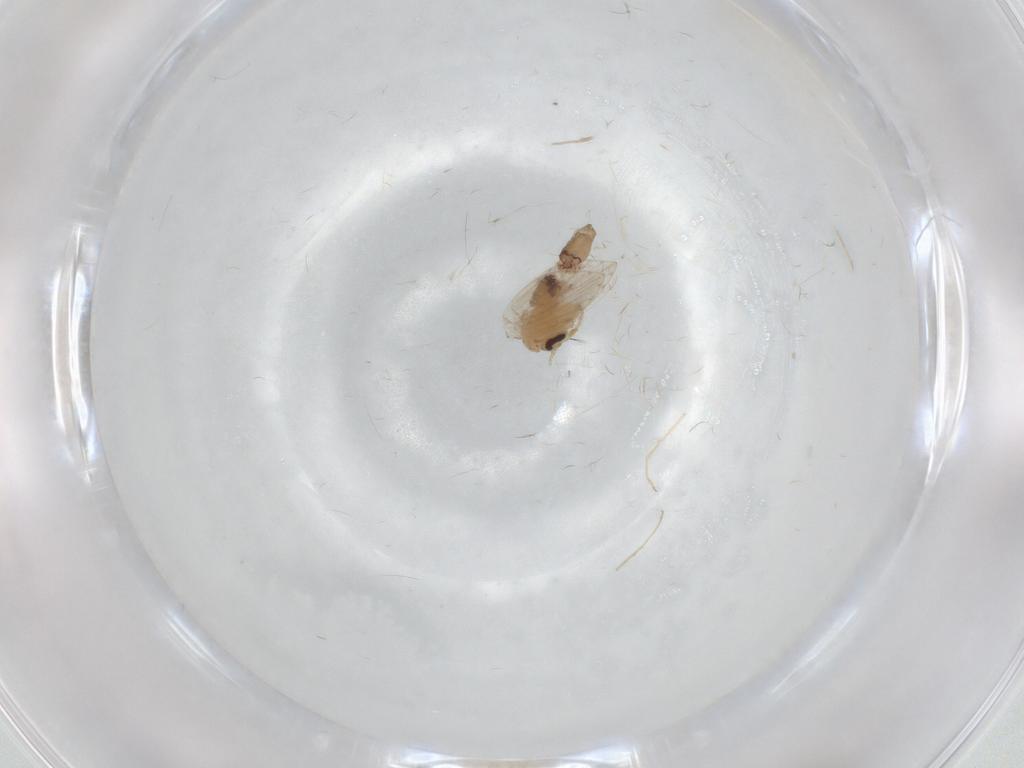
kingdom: Animalia
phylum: Arthropoda
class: Insecta
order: Diptera
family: Psychodidae
